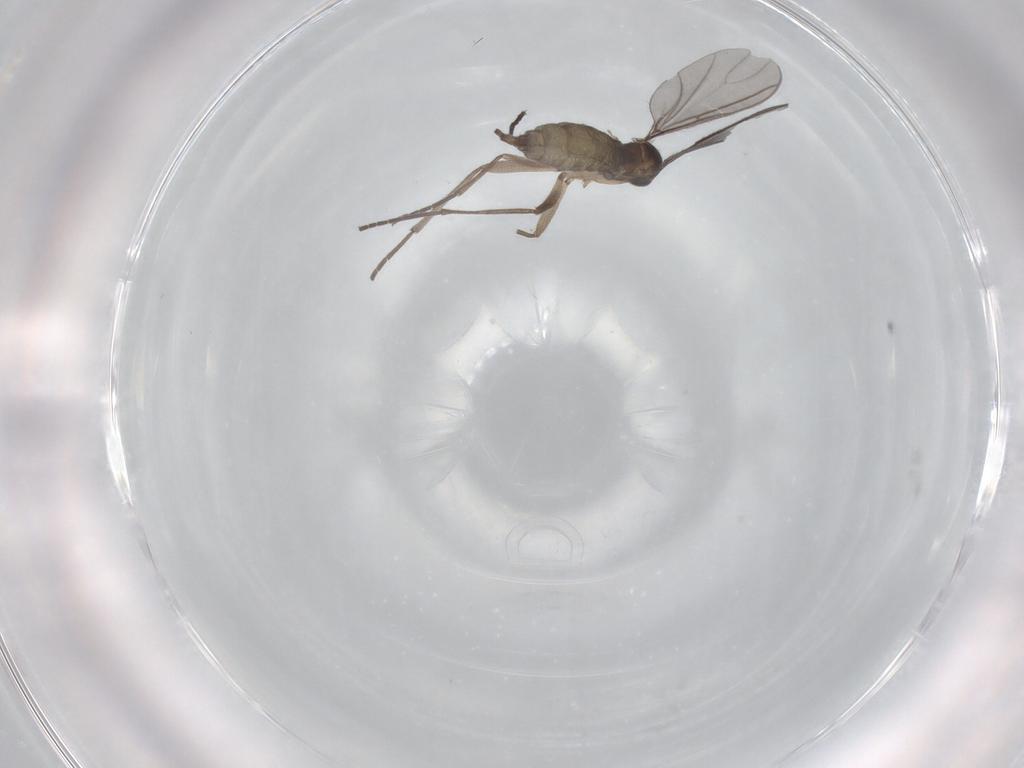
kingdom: Animalia
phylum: Arthropoda
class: Insecta
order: Diptera
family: Sciaridae
